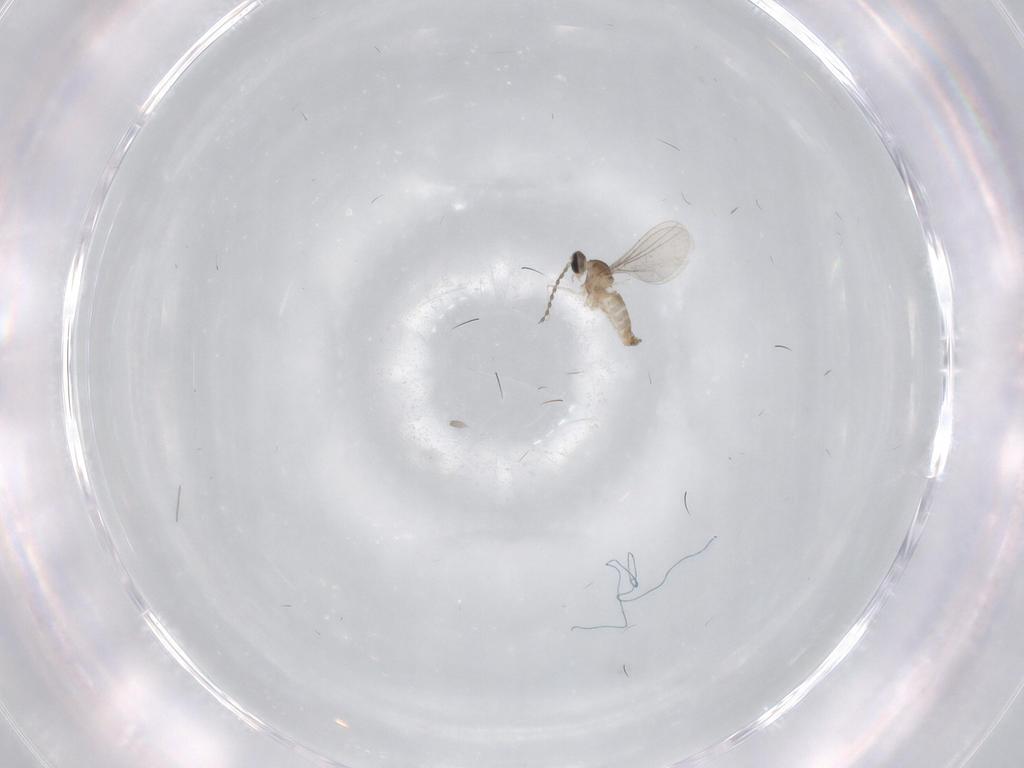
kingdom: Animalia
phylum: Arthropoda
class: Insecta
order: Diptera
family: Cecidomyiidae
